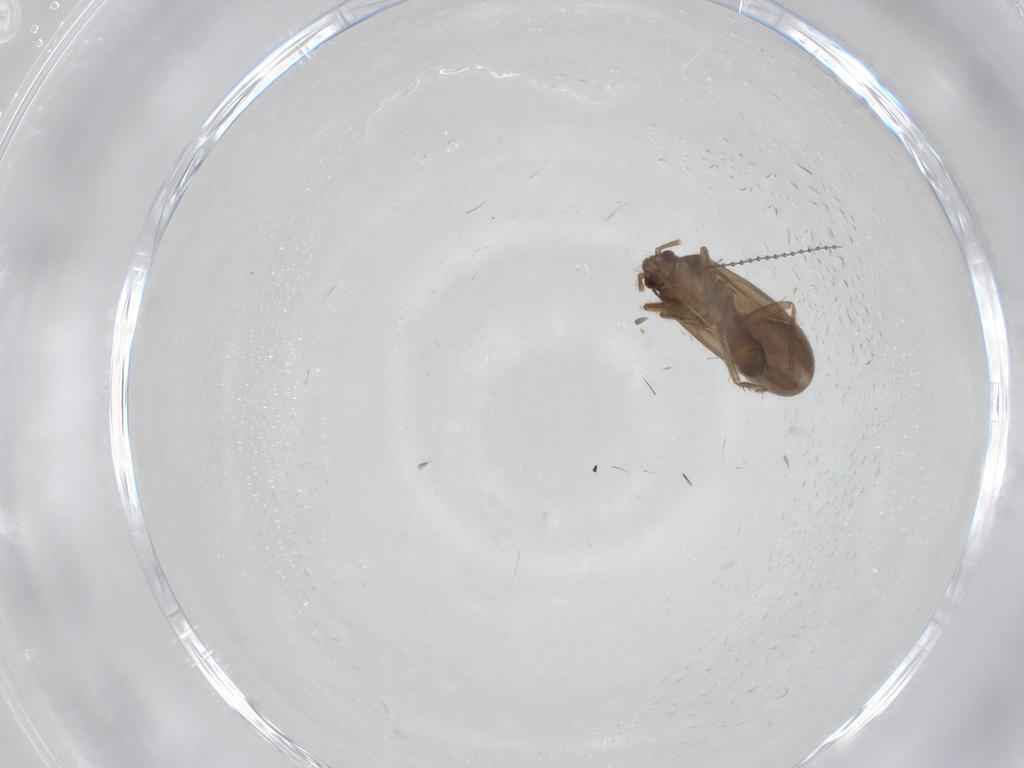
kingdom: Animalia
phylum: Arthropoda
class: Insecta
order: Hemiptera
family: Ceratocombidae
